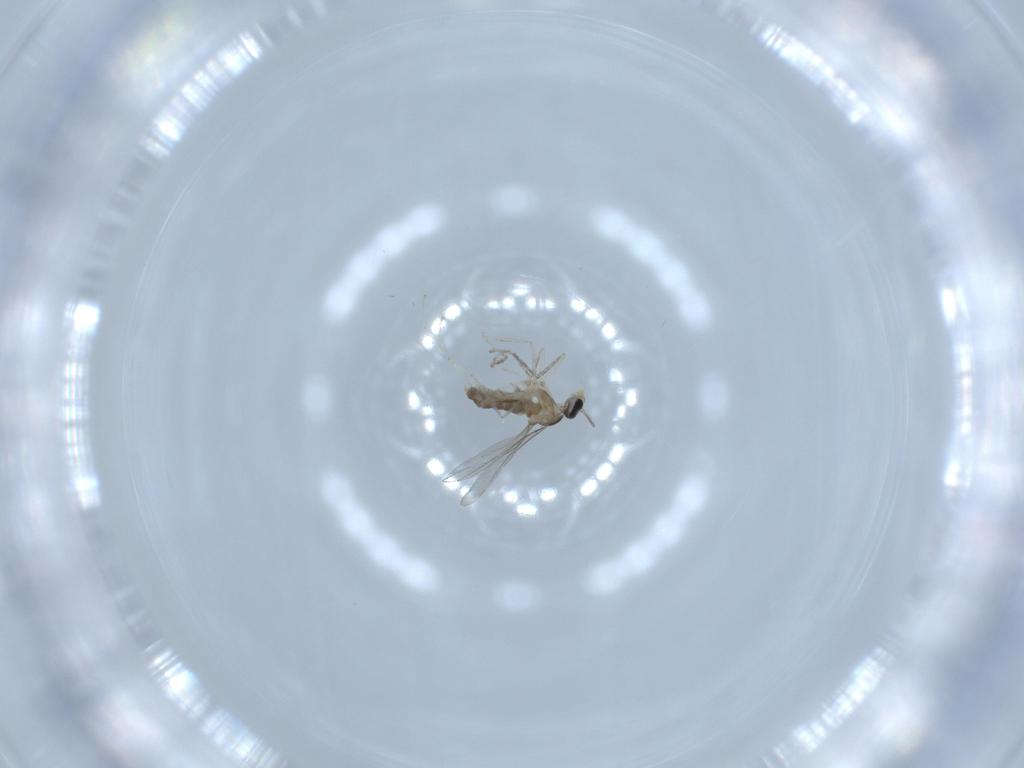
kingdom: Animalia
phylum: Arthropoda
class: Insecta
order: Diptera
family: Cecidomyiidae
